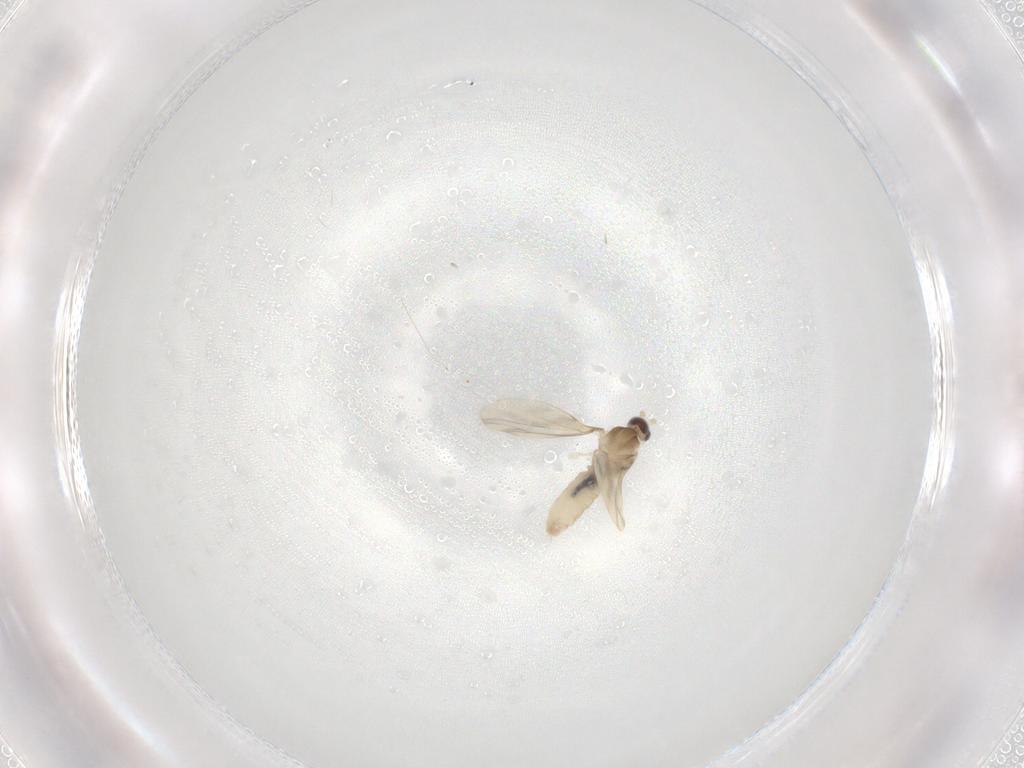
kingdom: Animalia
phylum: Arthropoda
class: Insecta
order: Diptera
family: Cecidomyiidae
